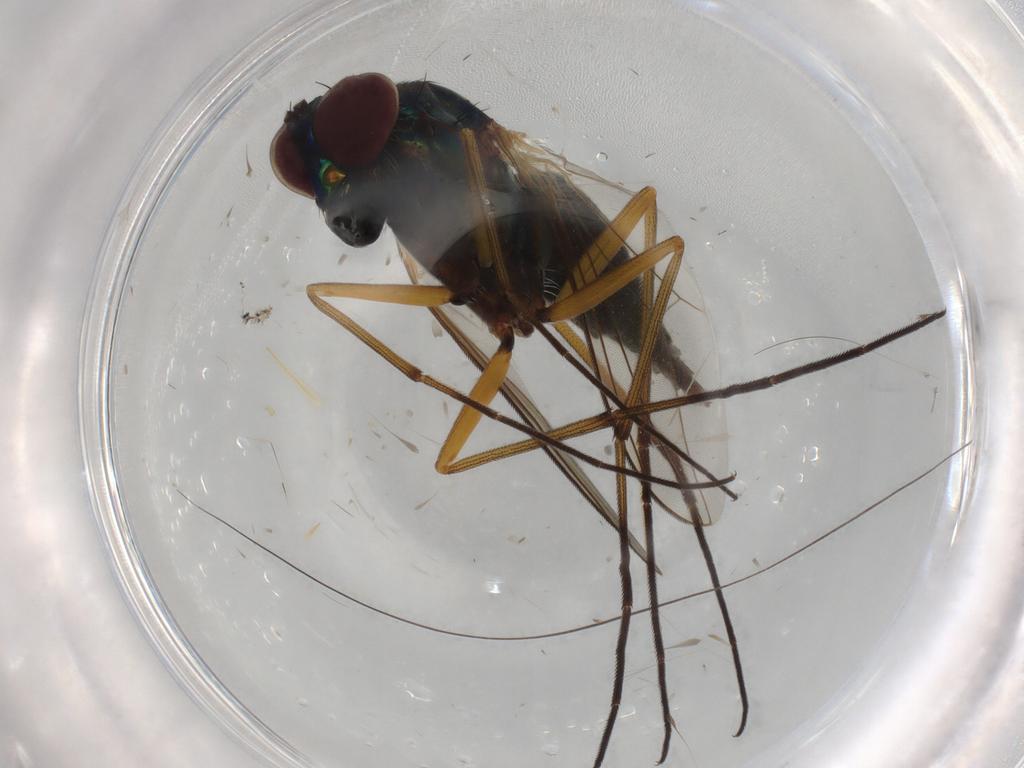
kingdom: Animalia
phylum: Arthropoda
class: Insecta
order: Diptera
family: Dolichopodidae
